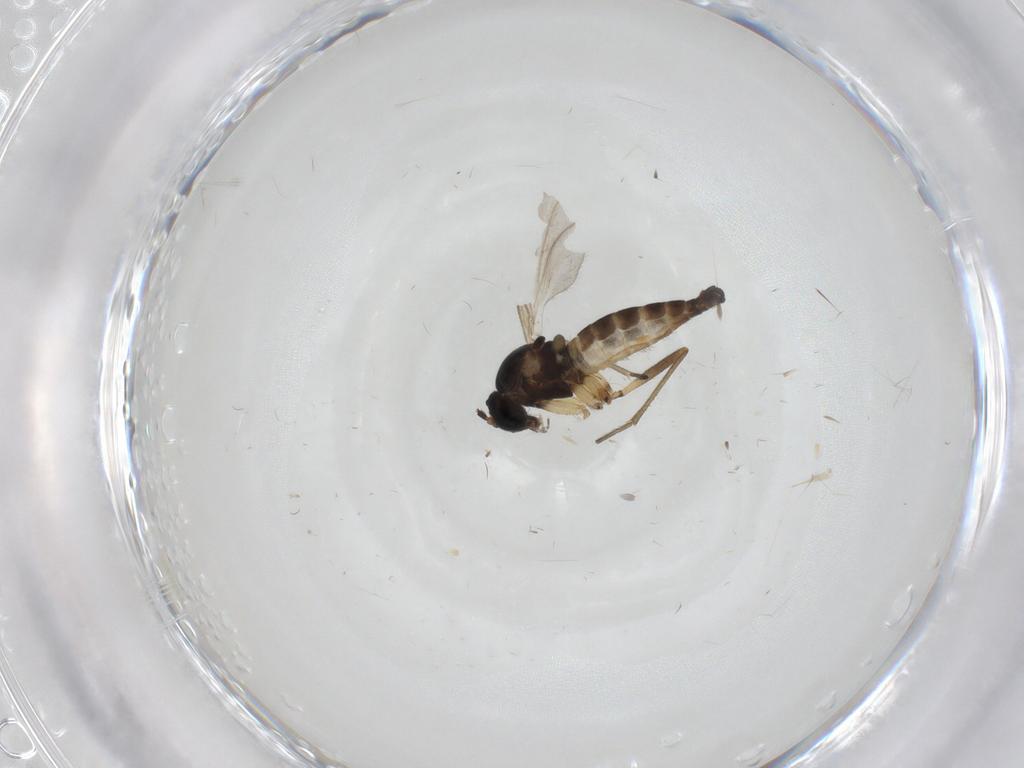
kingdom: Animalia
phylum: Arthropoda
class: Insecta
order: Diptera
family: Sciaridae
